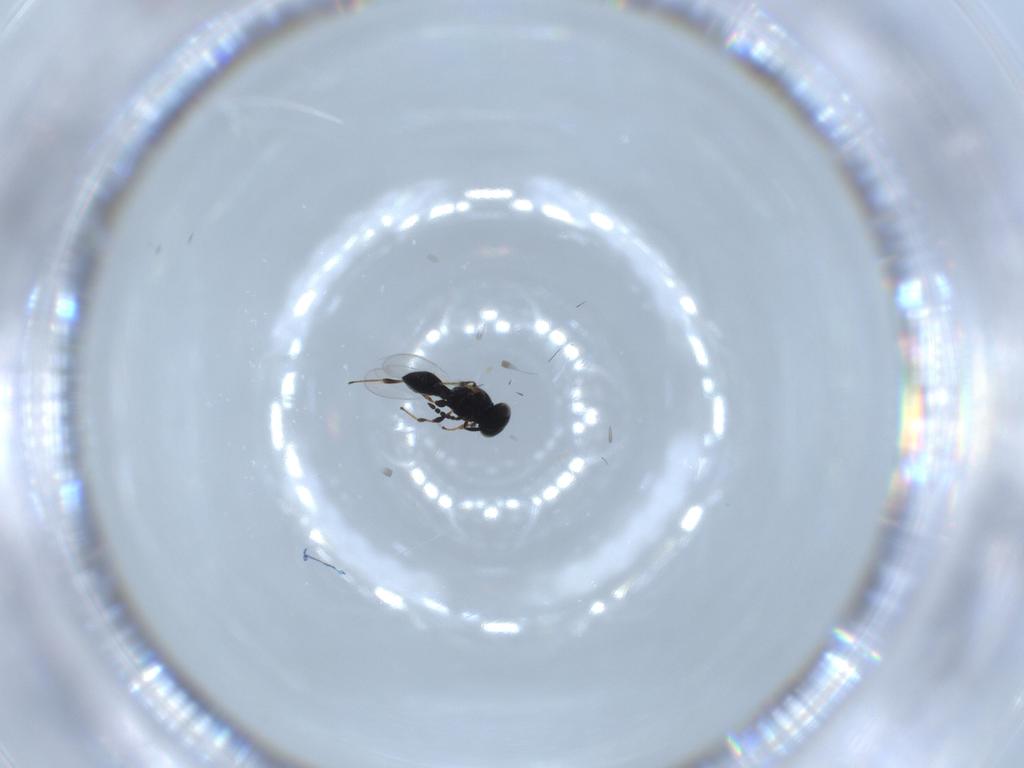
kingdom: Animalia
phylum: Arthropoda
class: Insecta
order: Diptera
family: Mythicomyiidae
